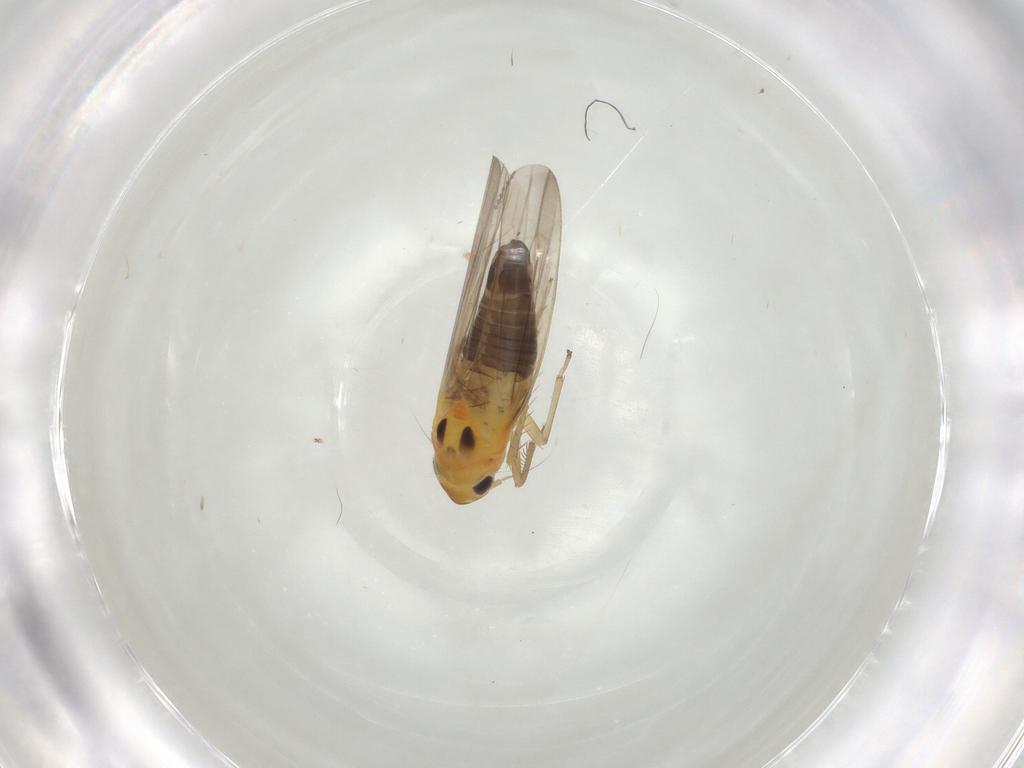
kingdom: Animalia
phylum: Arthropoda
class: Insecta
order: Hemiptera
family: Cicadellidae
